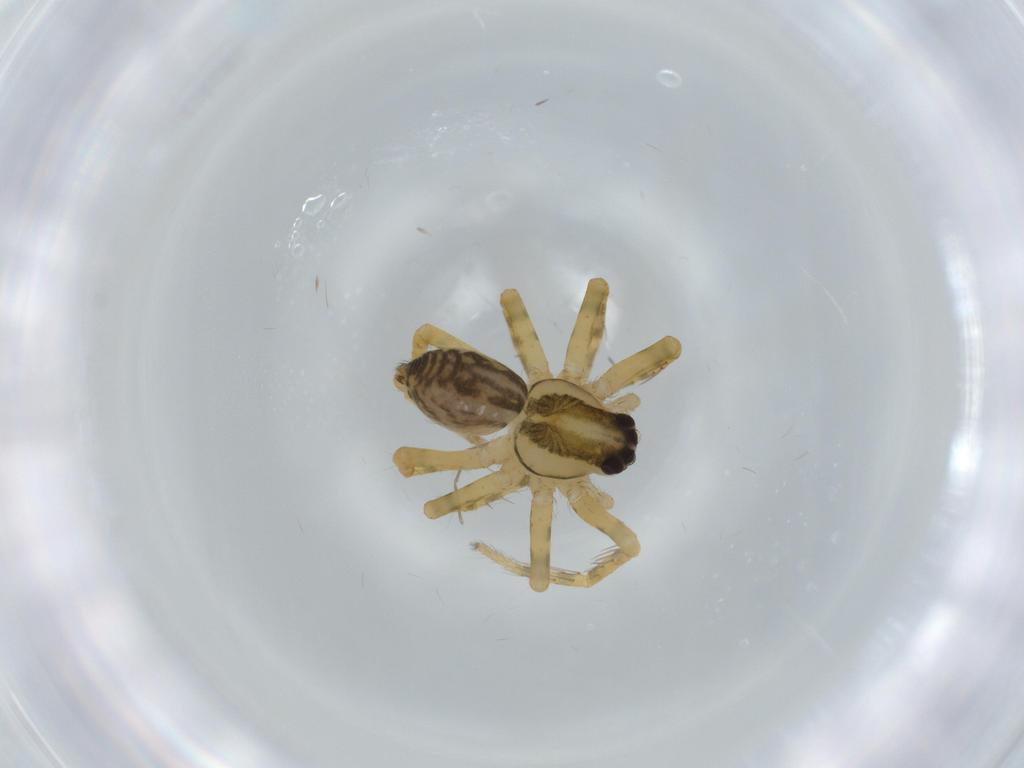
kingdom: Animalia
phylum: Arthropoda
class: Arachnida
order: Araneae
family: Ctenidae
